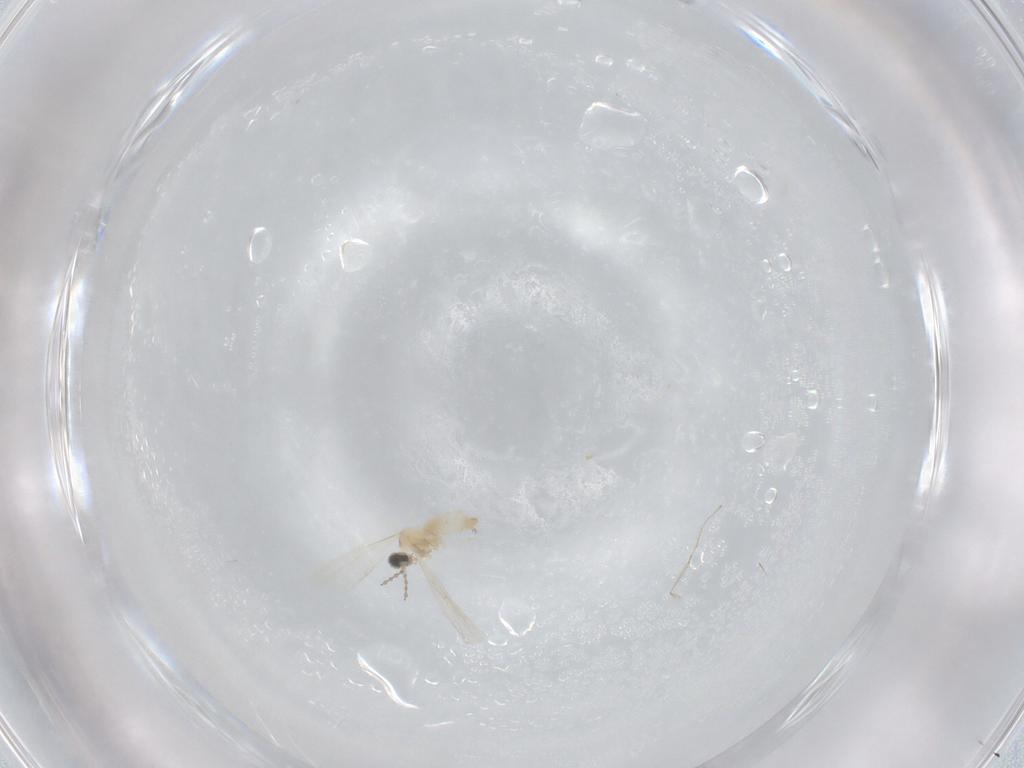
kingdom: Animalia
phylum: Arthropoda
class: Insecta
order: Diptera
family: Cecidomyiidae
